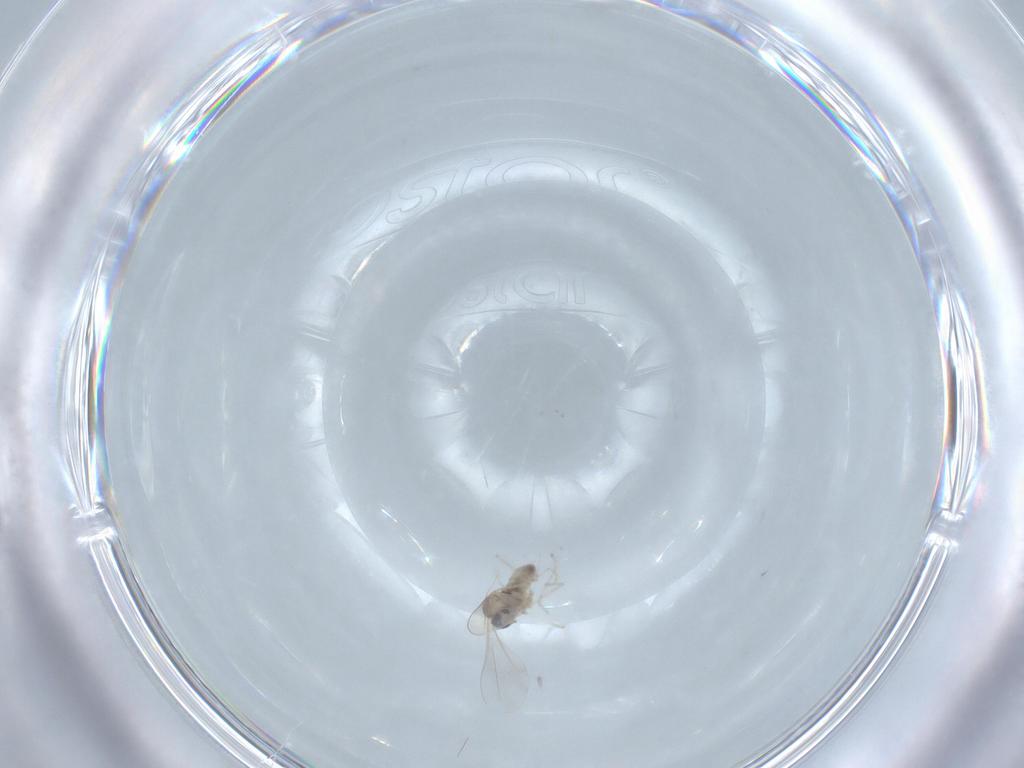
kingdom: Animalia
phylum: Arthropoda
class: Insecta
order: Diptera
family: Cecidomyiidae
